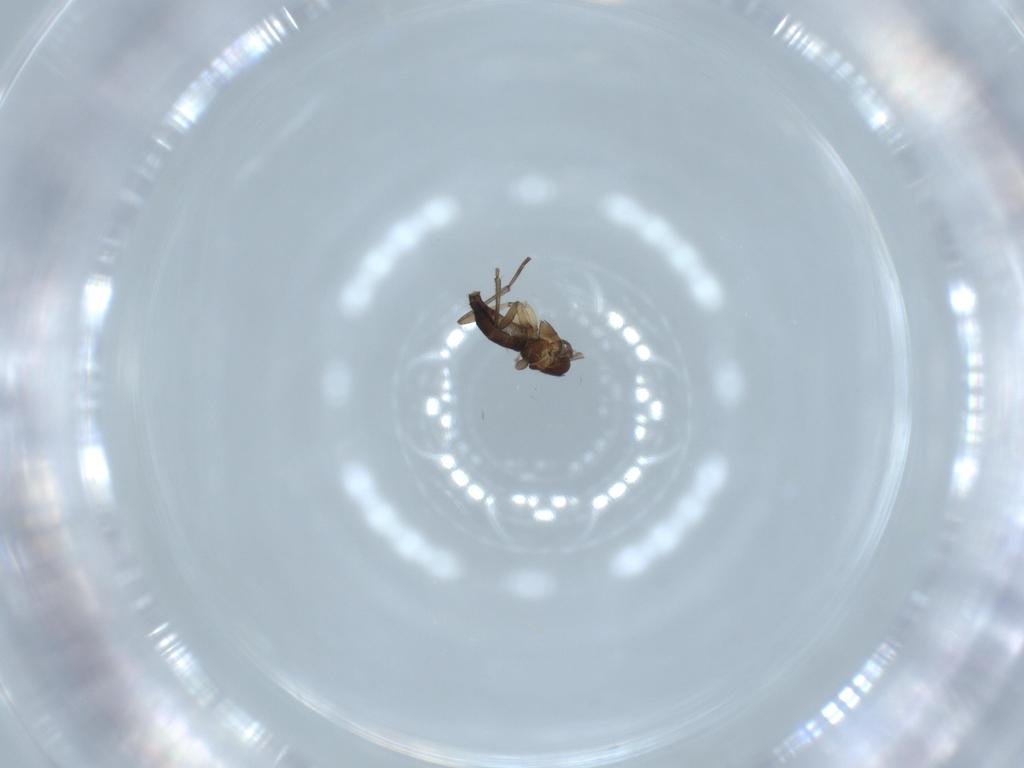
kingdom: Animalia
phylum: Arthropoda
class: Insecta
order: Diptera
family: Sciaridae
